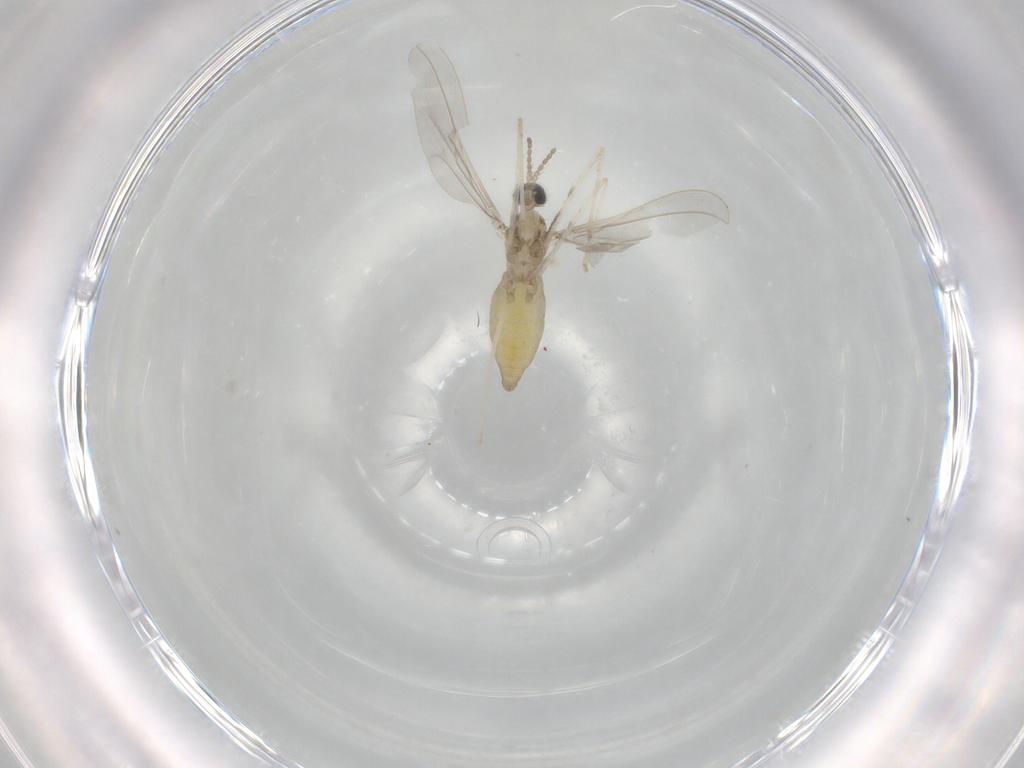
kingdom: Animalia
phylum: Arthropoda
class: Insecta
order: Diptera
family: Cecidomyiidae
